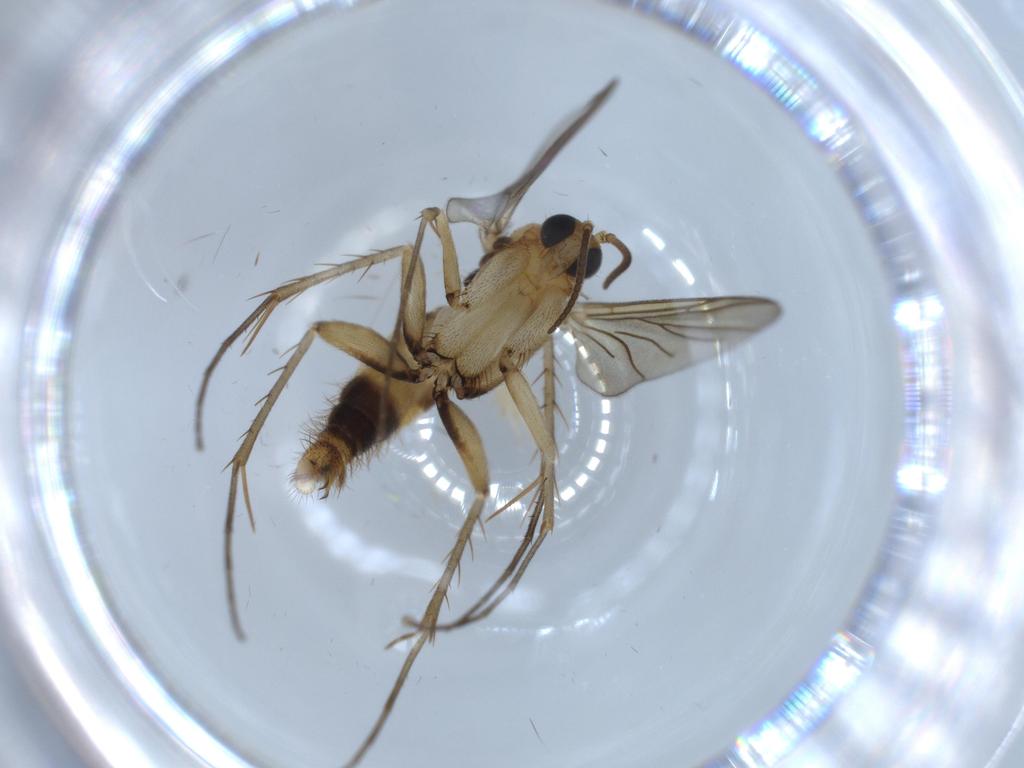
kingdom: Animalia
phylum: Arthropoda
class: Insecta
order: Diptera
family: Mycetophilidae
